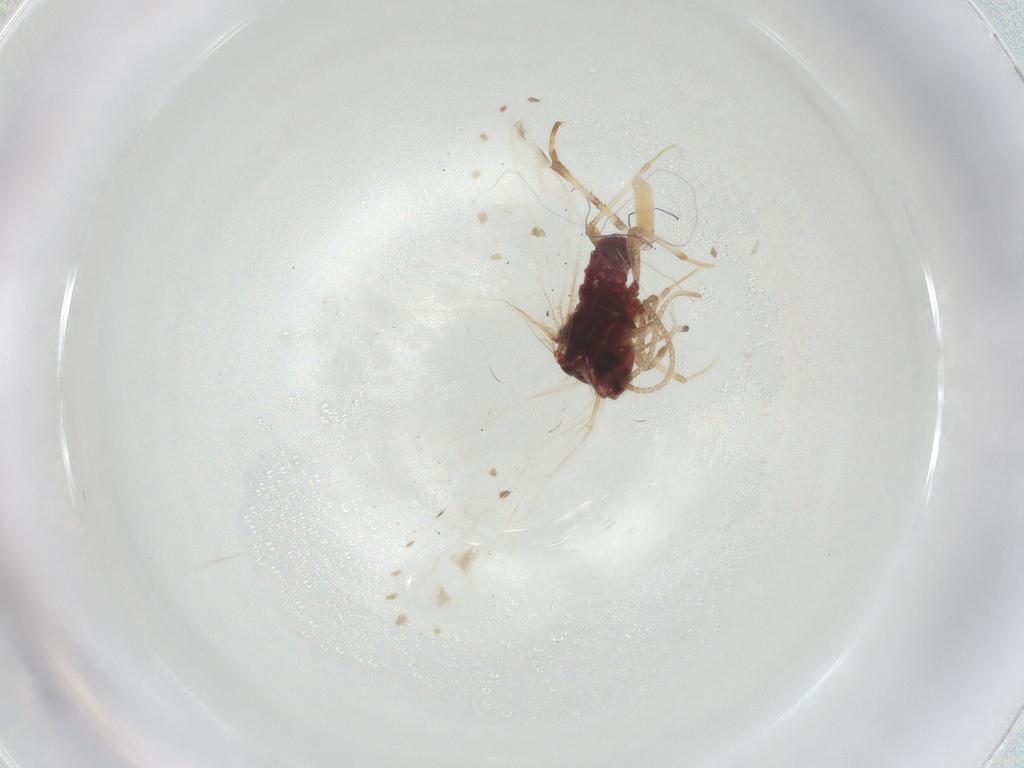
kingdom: Animalia
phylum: Arthropoda
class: Insecta
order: Neuroptera
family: Coniopterygidae
